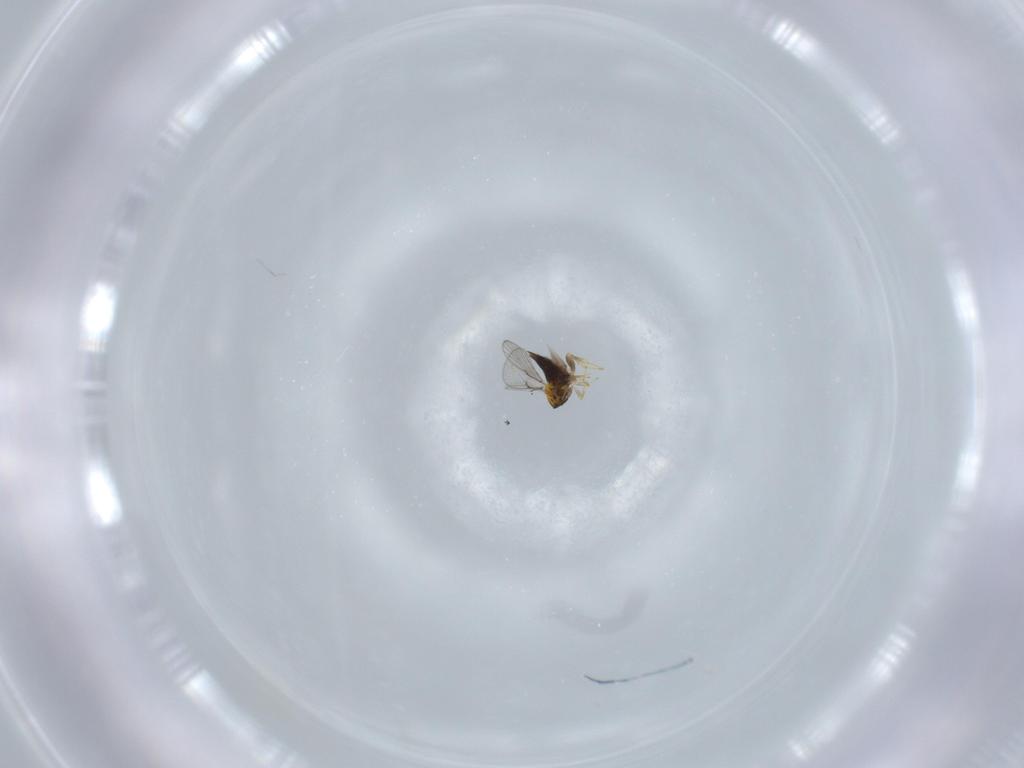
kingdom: Animalia
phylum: Arthropoda
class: Insecta
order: Hymenoptera
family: Trichogrammatidae
